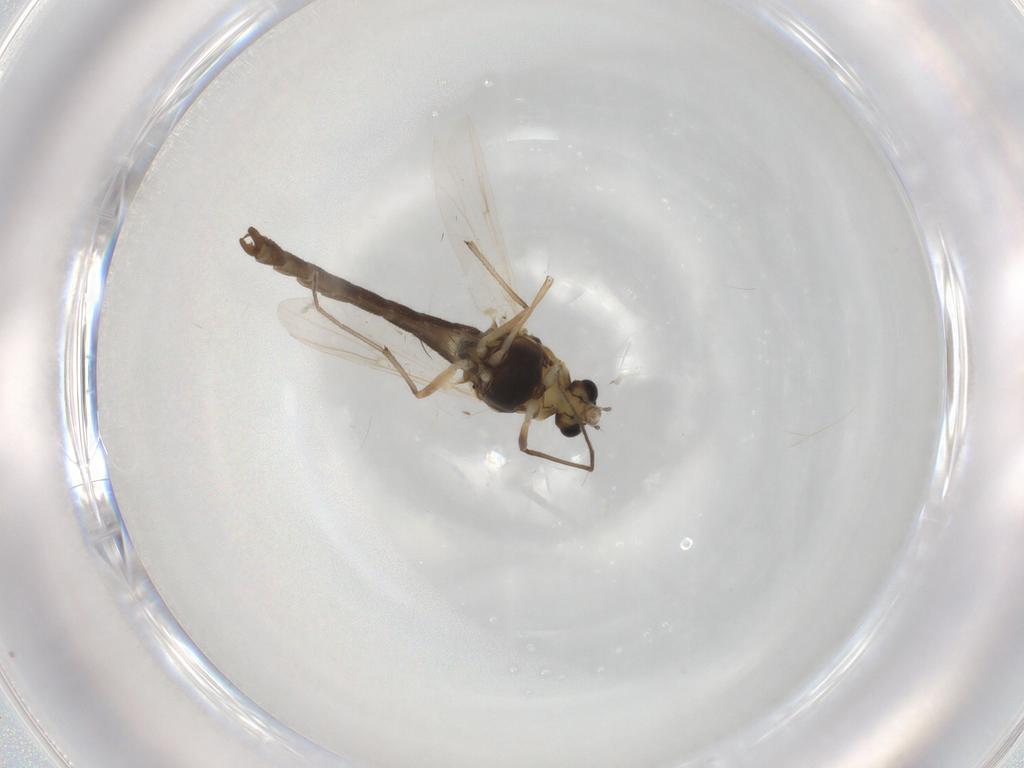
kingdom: Animalia
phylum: Arthropoda
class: Insecta
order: Diptera
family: Chironomidae
